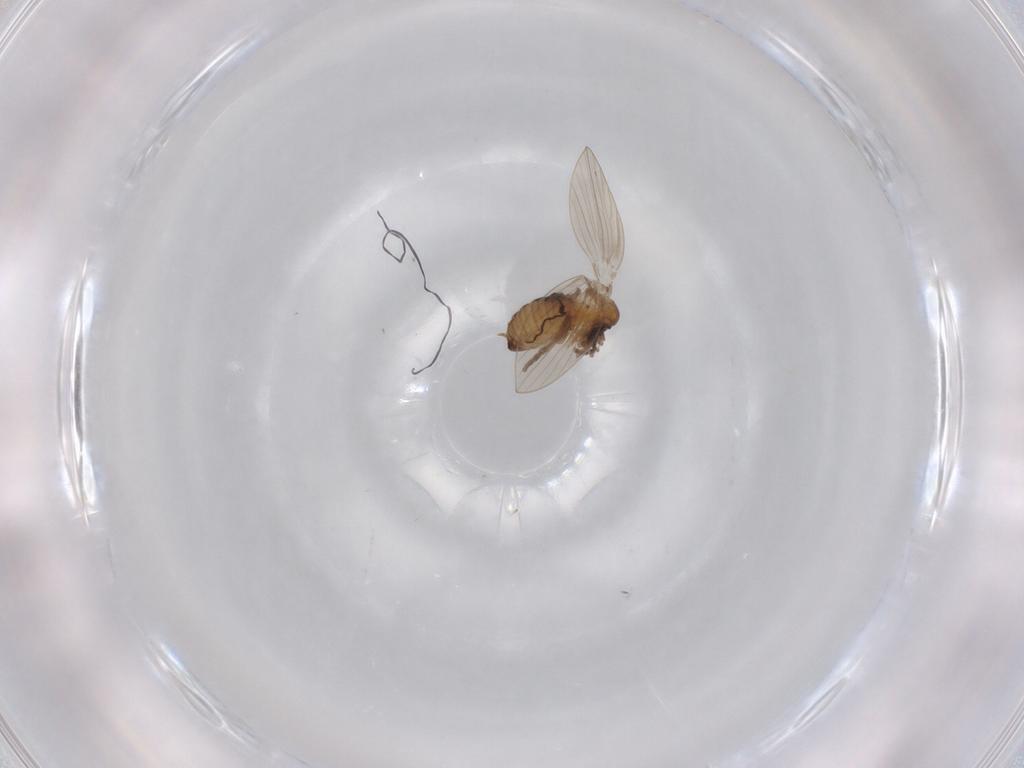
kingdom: Animalia
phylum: Arthropoda
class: Insecta
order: Diptera
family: Psychodidae
